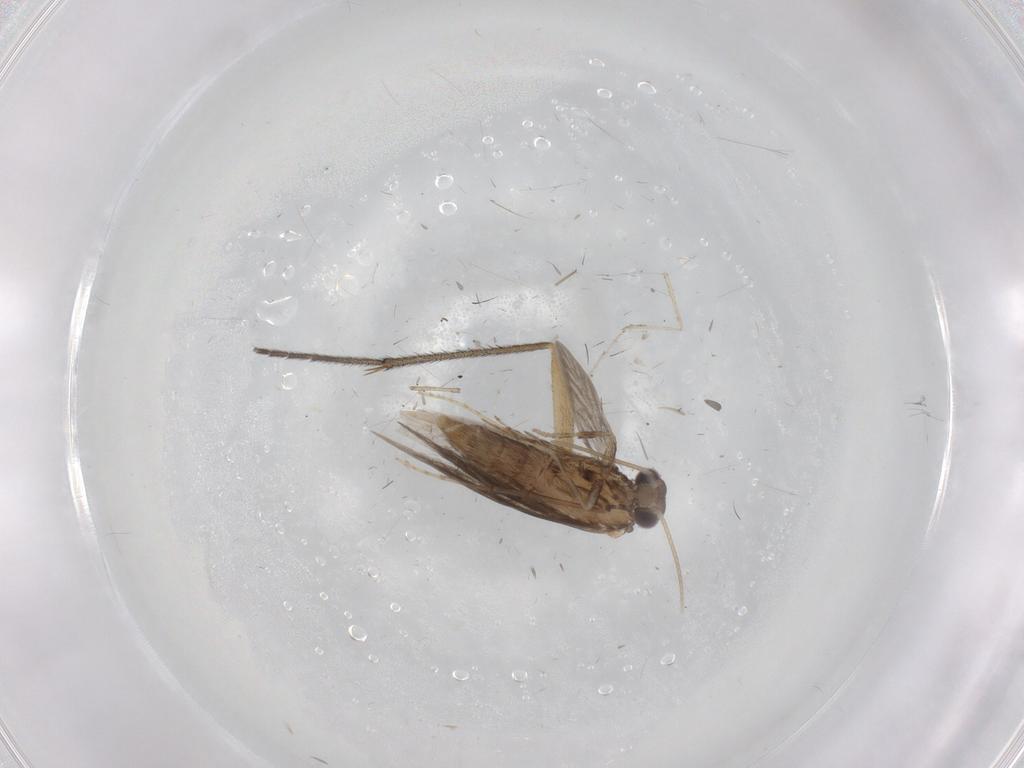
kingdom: Animalia
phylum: Arthropoda
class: Insecta
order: Trichoptera
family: Hydroptilidae
